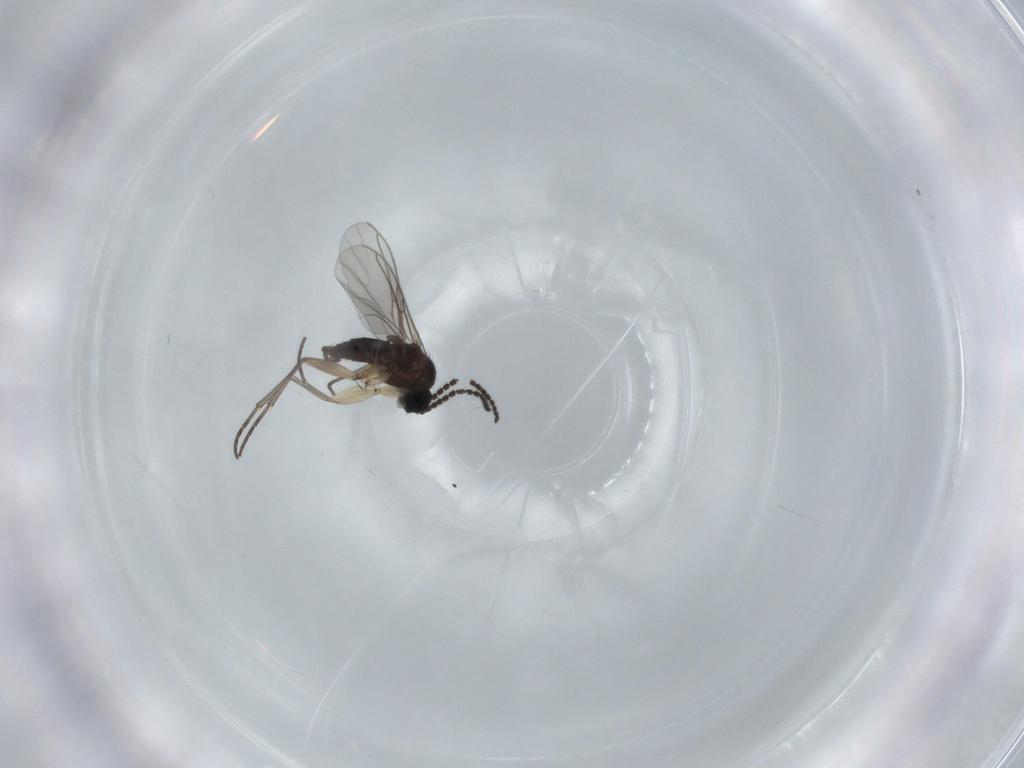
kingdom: Animalia
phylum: Arthropoda
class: Insecta
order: Diptera
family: Sciaridae
